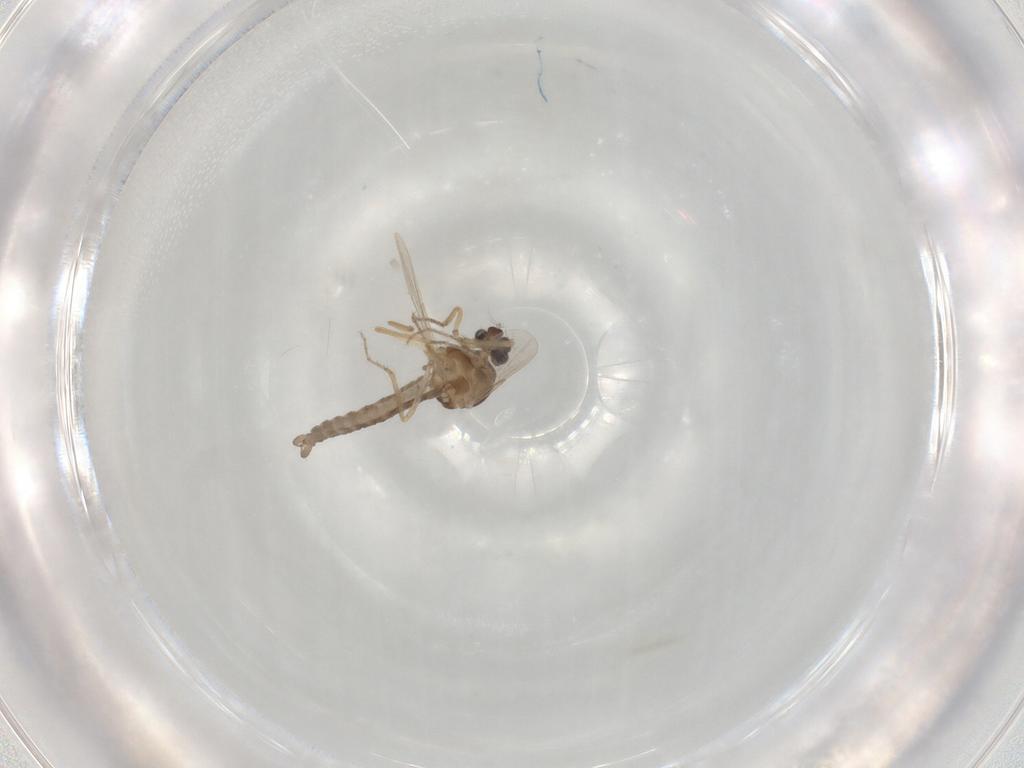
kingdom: Animalia
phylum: Arthropoda
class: Insecta
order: Diptera
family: Ceratopogonidae
